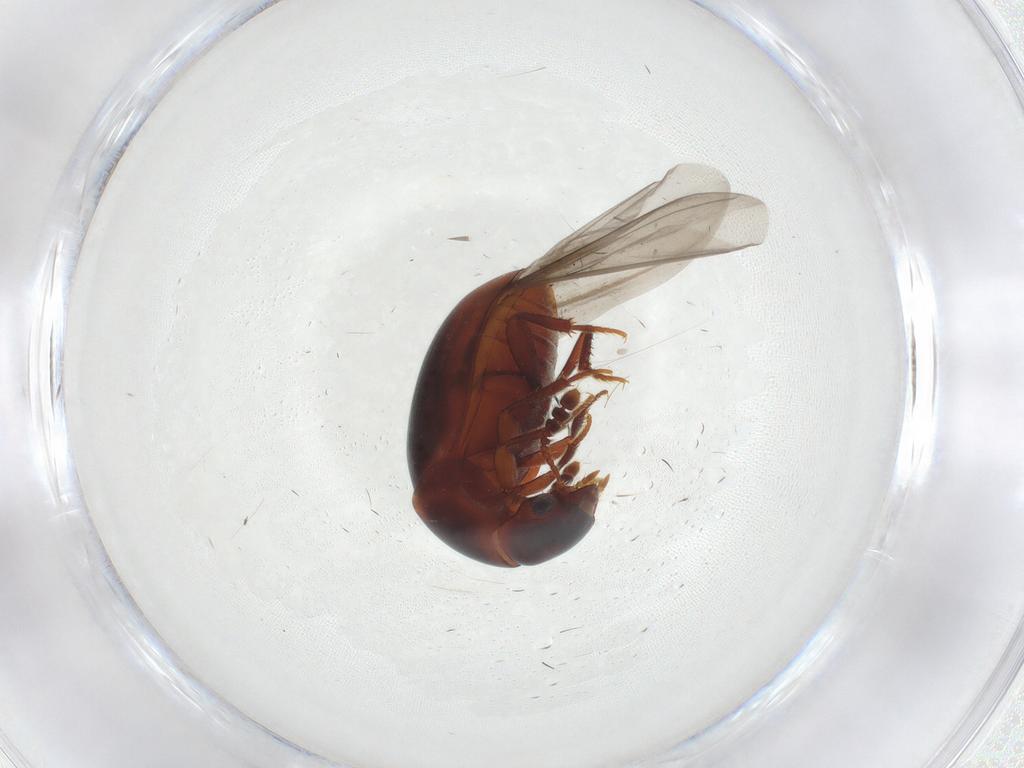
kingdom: Animalia
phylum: Arthropoda
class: Insecta
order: Coleoptera
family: Leiodidae
